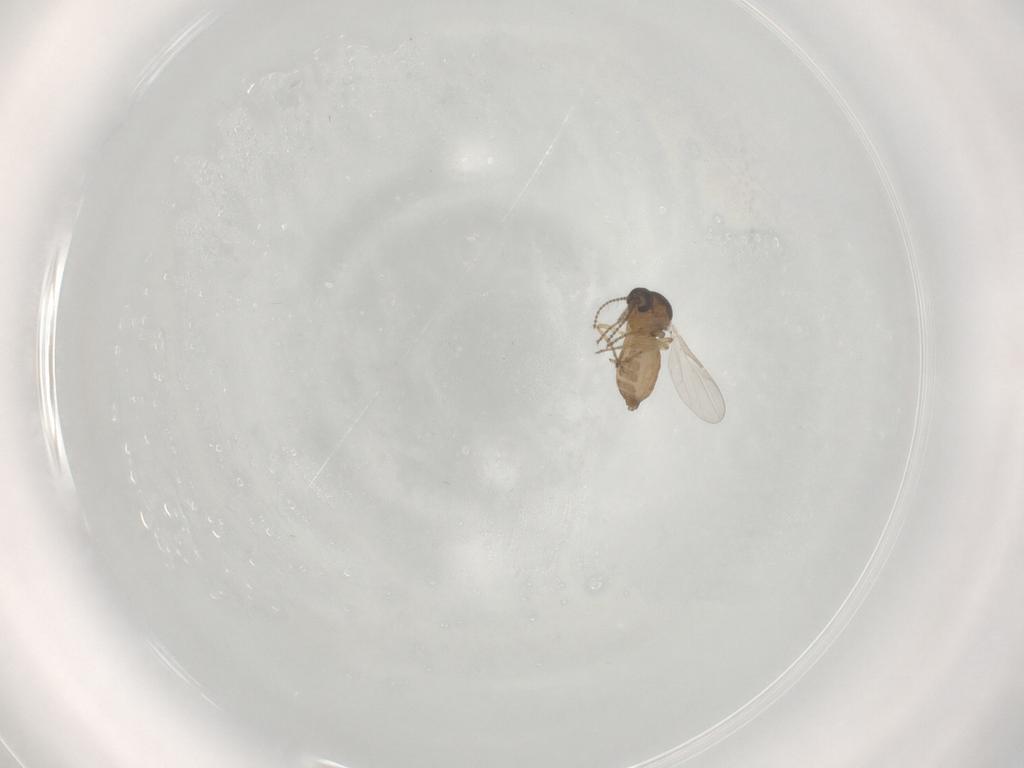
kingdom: Animalia
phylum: Arthropoda
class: Insecta
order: Diptera
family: Ceratopogonidae
